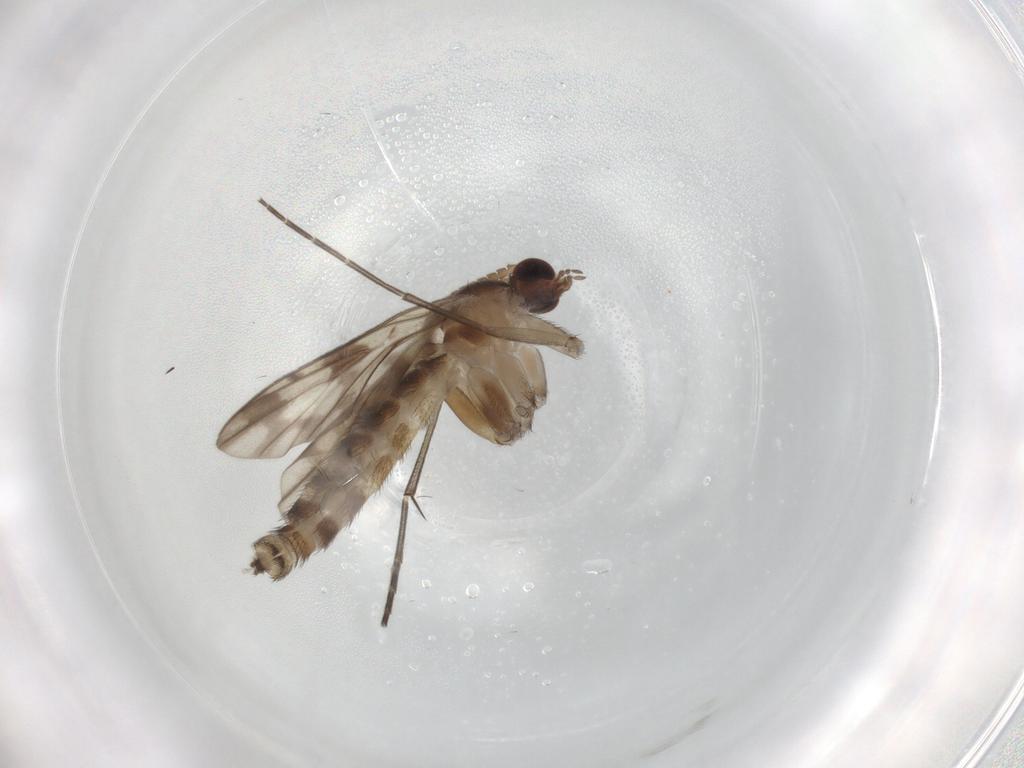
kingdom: Animalia
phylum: Arthropoda
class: Insecta
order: Diptera
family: Keroplatidae
